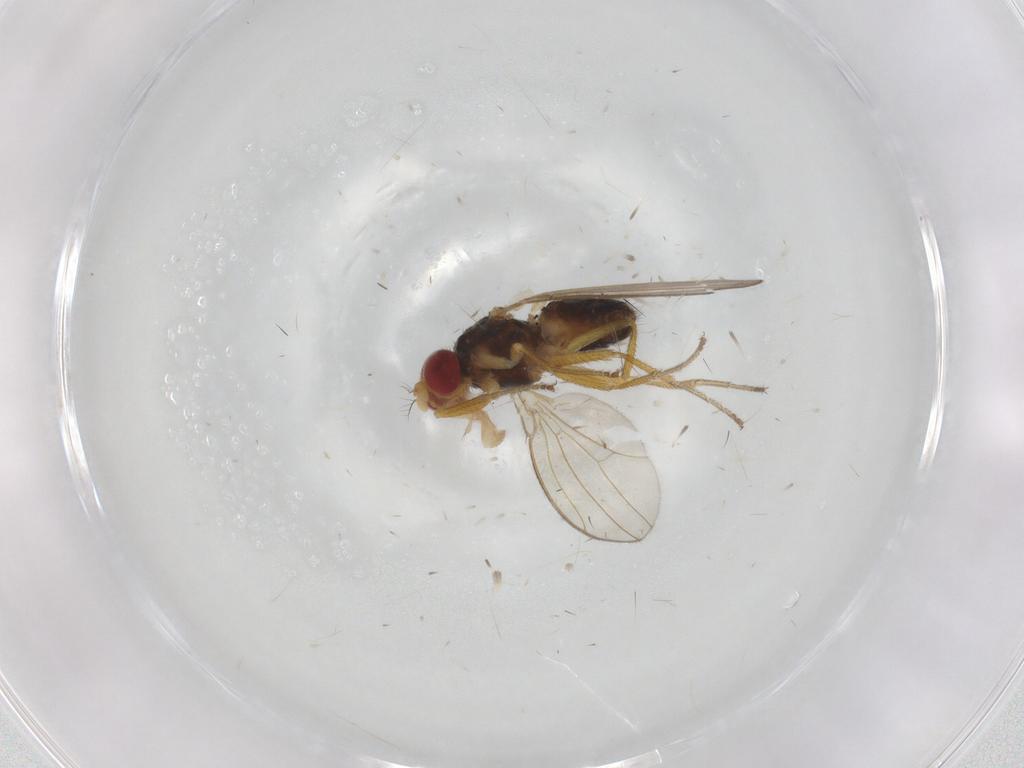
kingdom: Animalia
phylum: Arthropoda
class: Insecta
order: Diptera
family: Drosophilidae
